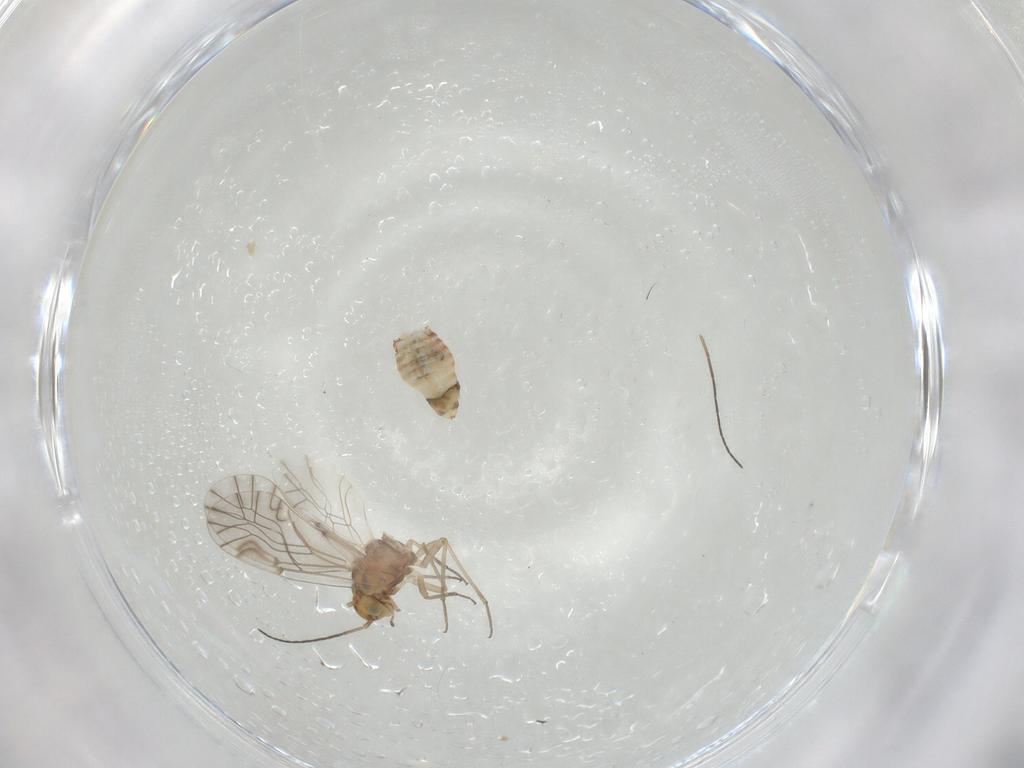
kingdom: Animalia
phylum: Arthropoda
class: Insecta
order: Psocodea
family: Lachesillidae
